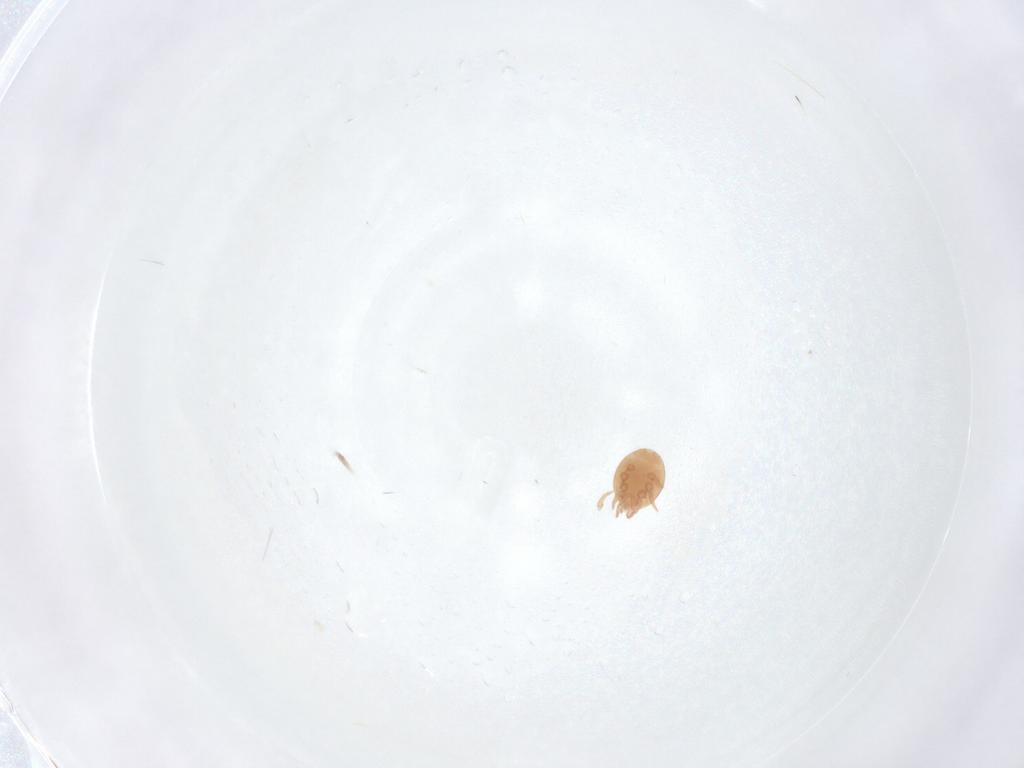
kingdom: Animalia
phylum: Arthropoda
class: Arachnida
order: Mesostigmata
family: Trematuridae
